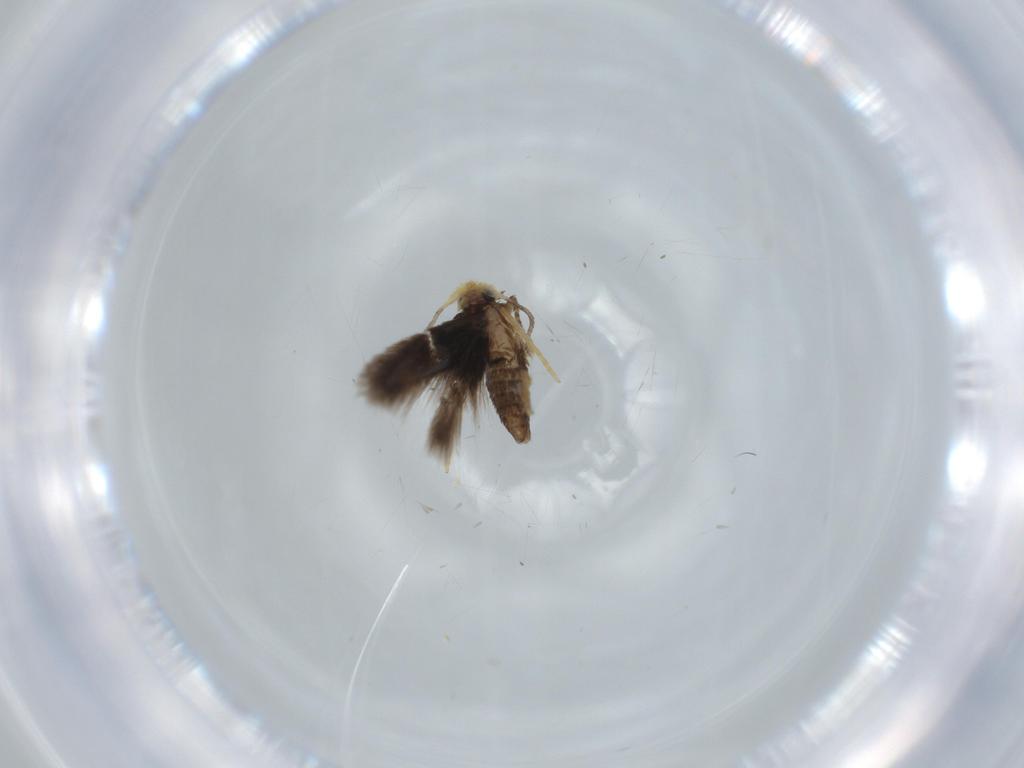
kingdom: Animalia
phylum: Arthropoda
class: Insecta
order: Lepidoptera
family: Nepticulidae
